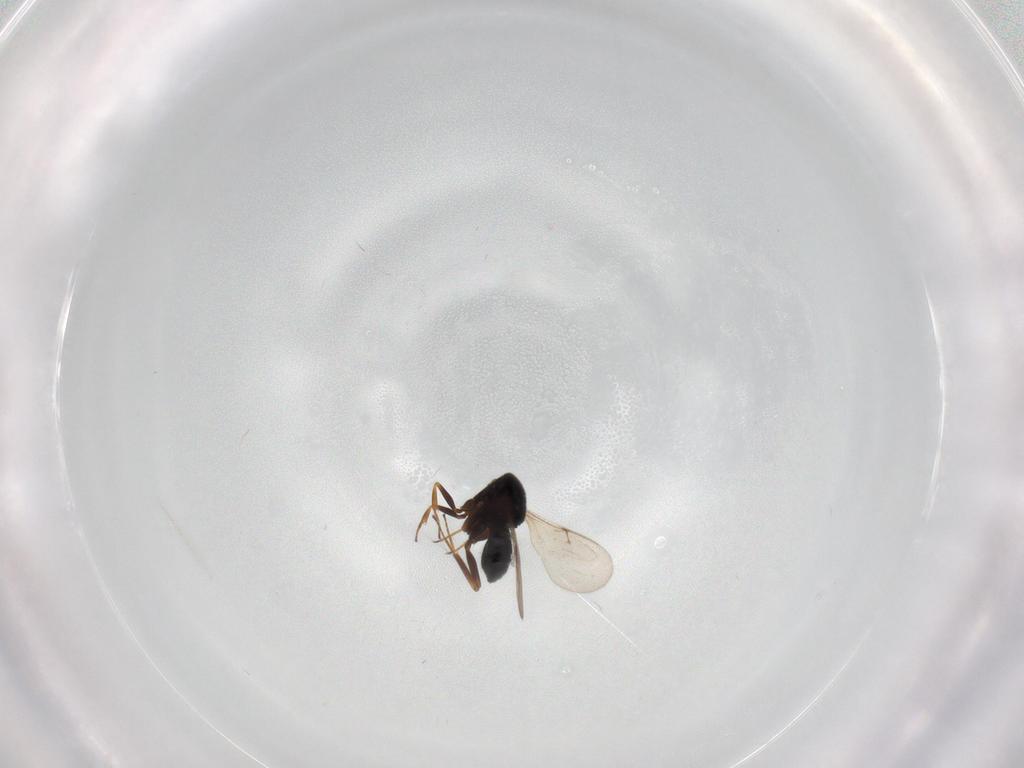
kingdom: Animalia
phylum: Arthropoda
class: Insecta
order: Hymenoptera
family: Scelionidae
